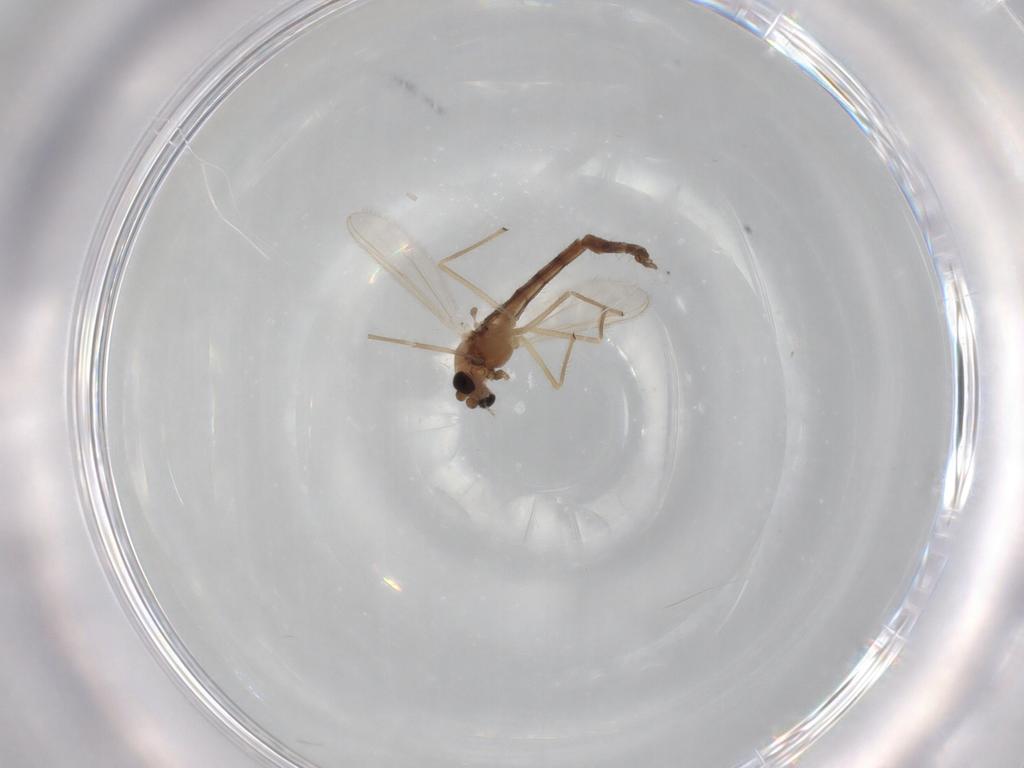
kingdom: Animalia
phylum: Arthropoda
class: Insecta
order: Diptera
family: Chironomidae
